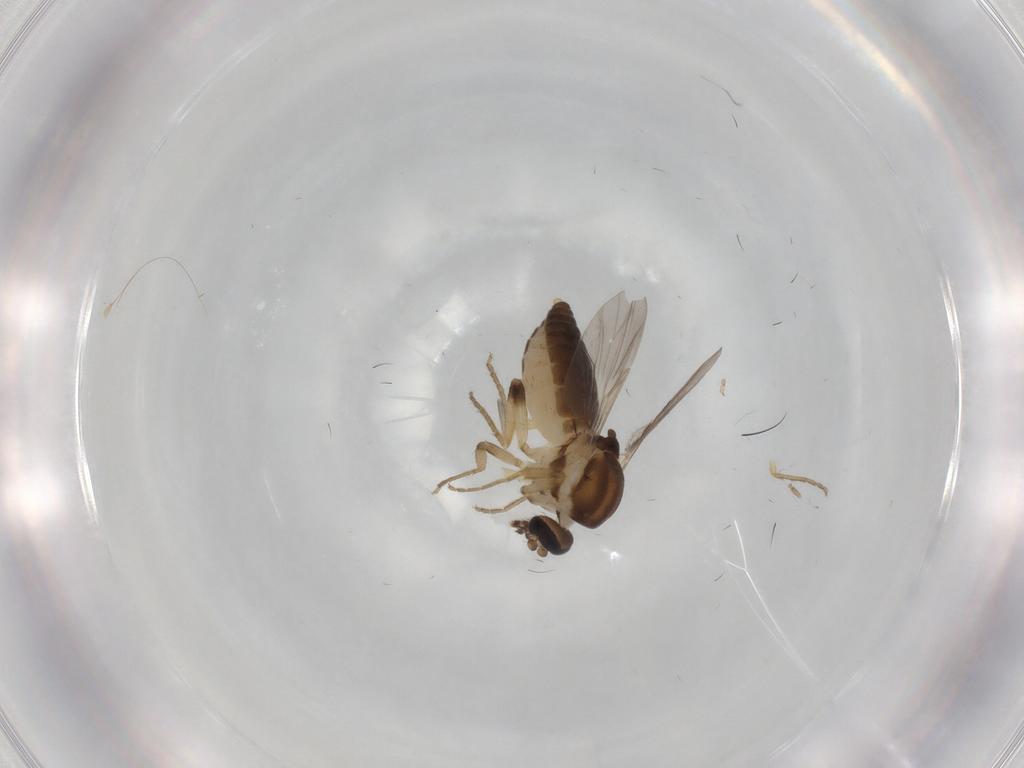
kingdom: Animalia
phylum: Arthropoda
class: Insecta
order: Diptera
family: Ceratopogonidae
